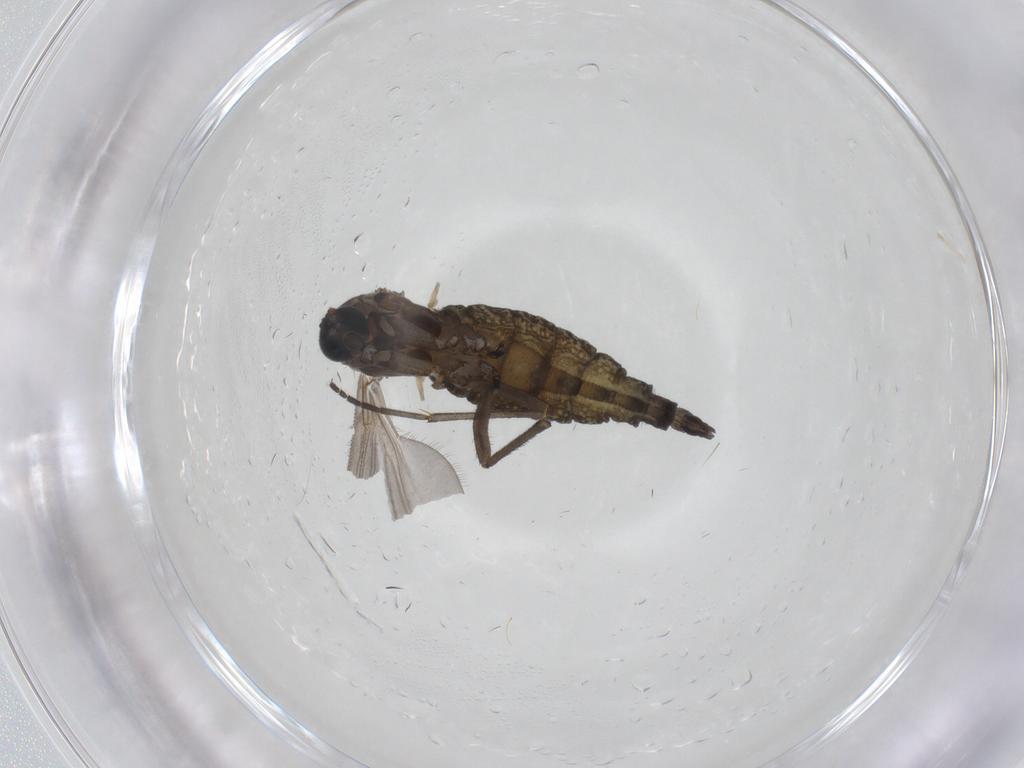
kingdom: Animalia
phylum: Arthropoda
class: Insecta
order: Diptera
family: Sciaridae
